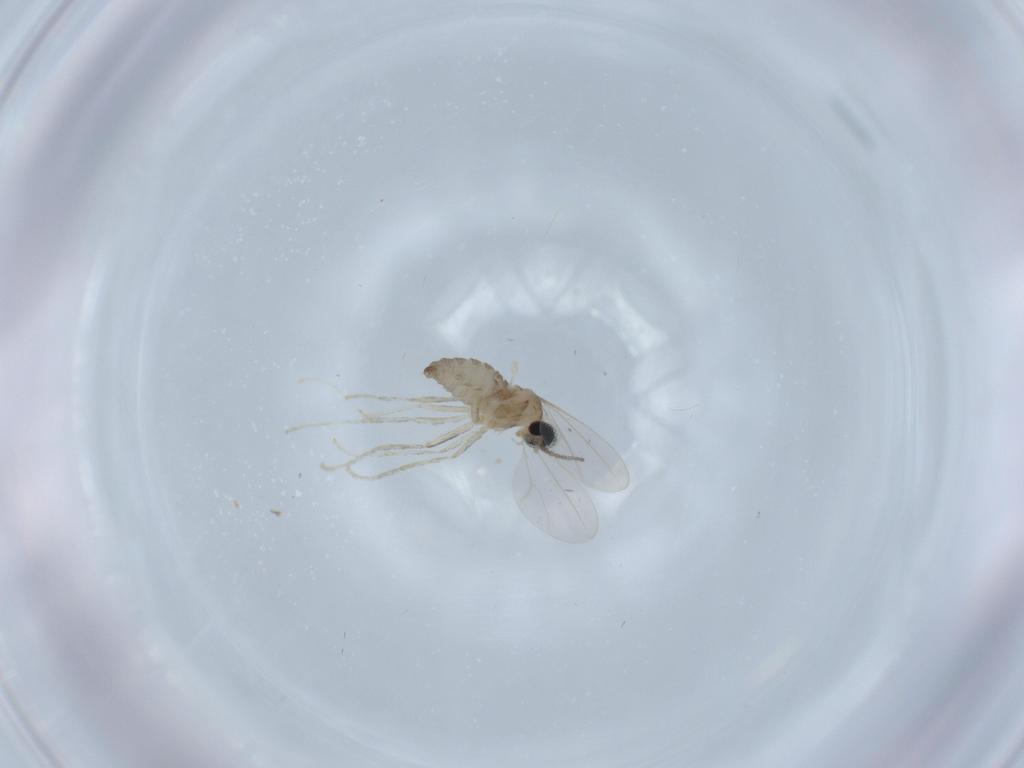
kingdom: Animalia
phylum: Arthropoda
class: Insecta
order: Diptera
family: Cecidomyiidae
